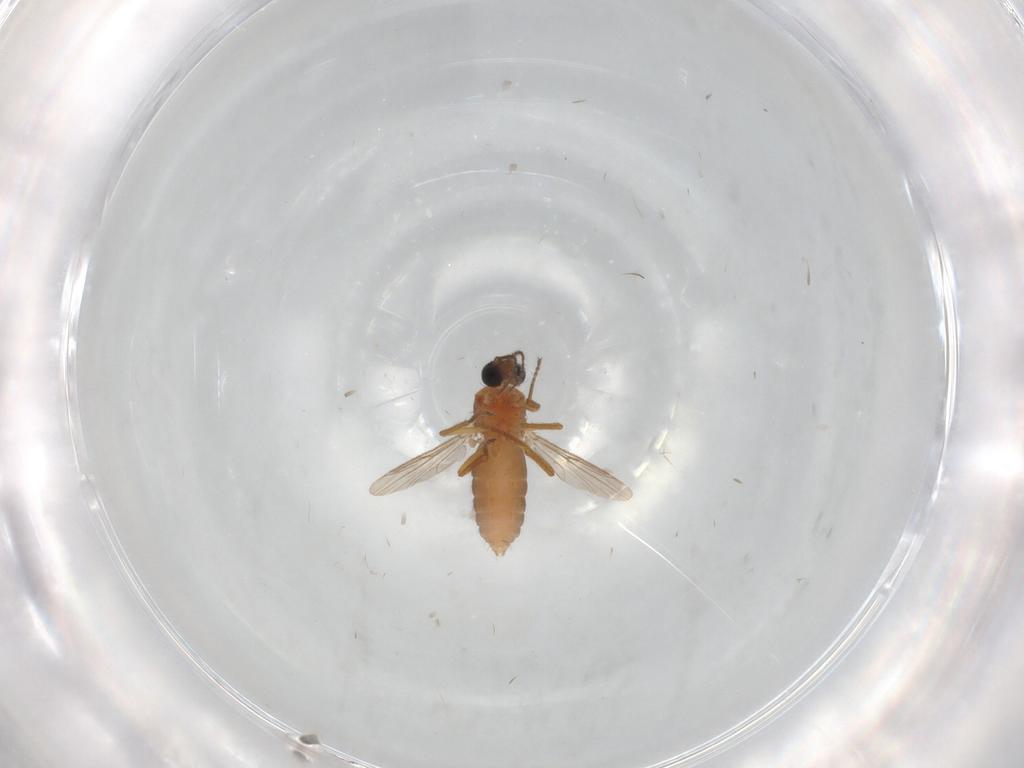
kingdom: Animalia
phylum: Arthropoda
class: Insecta
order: Diptera
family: Ceratopogonidae
